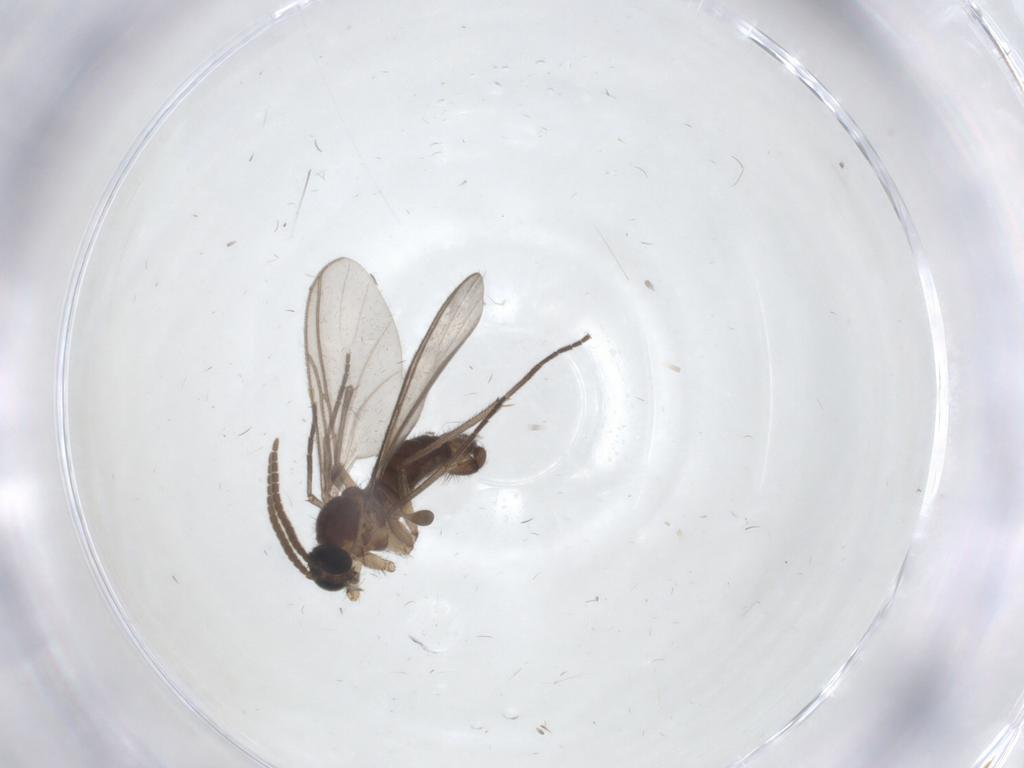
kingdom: Animalia
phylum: Arthropoda
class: Insecta
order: Diptera
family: Sciaridae
